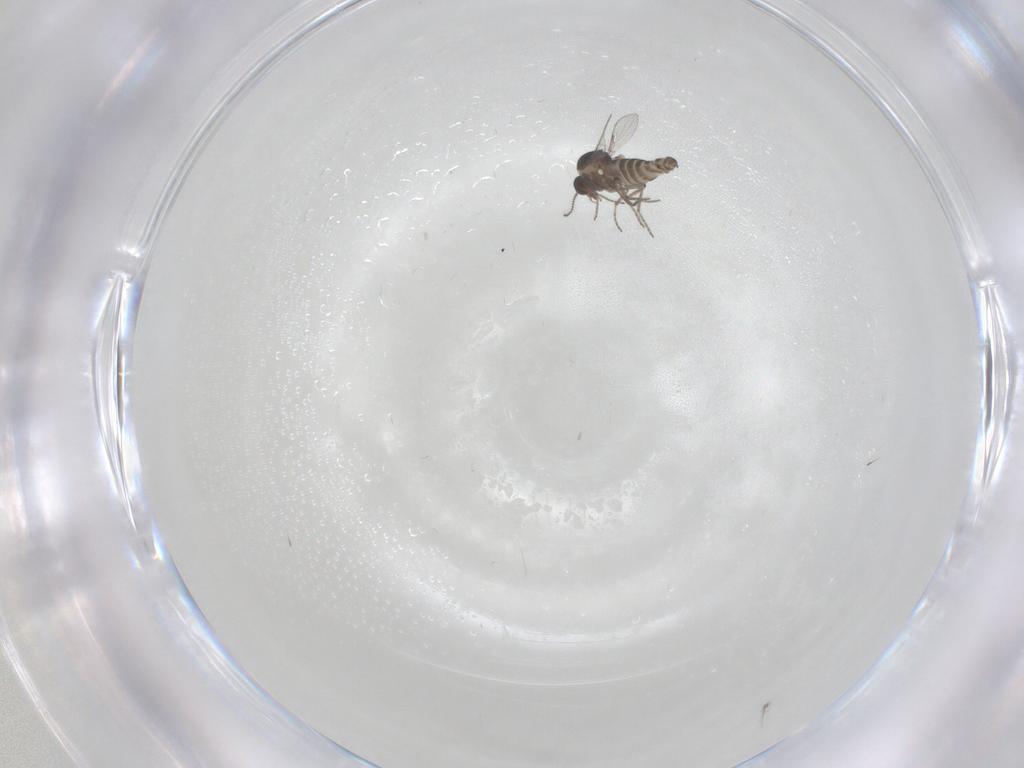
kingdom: Animalia
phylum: Arthropoda
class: Insecta
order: Diptera
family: Ceratopogonidae
